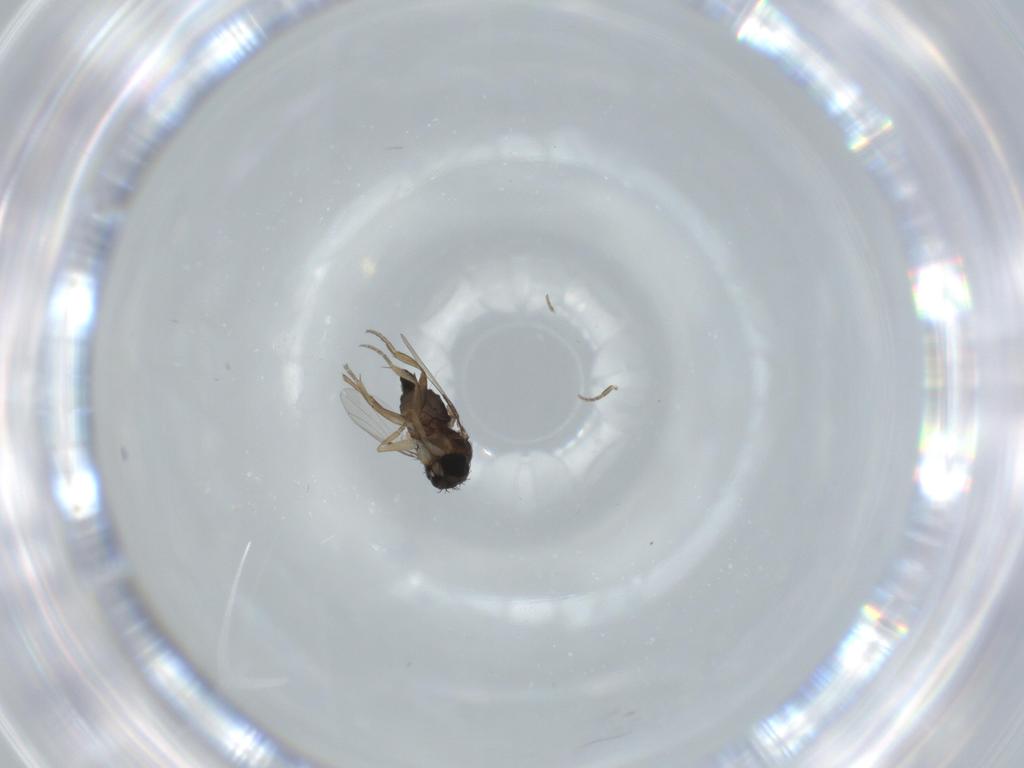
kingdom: Animalia
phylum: Arthropoda
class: Insecta
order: Diptera
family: Phoridae
